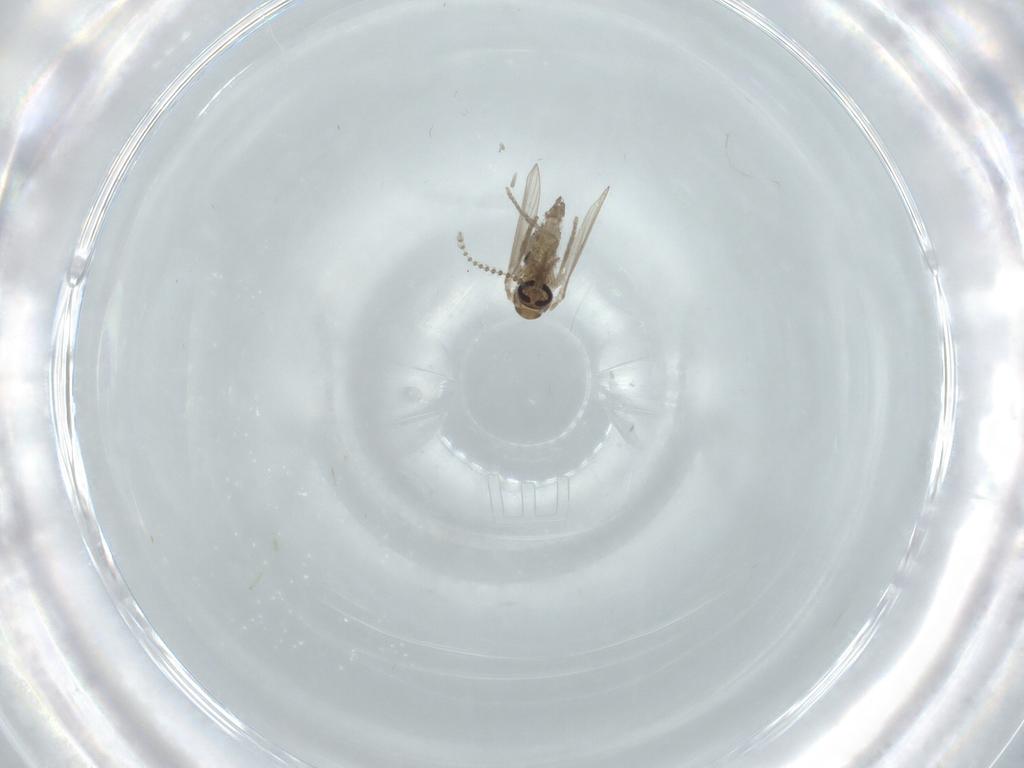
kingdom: Animalia
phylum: Arthropoda
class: Insecta
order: Diptera
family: Psychodidae
